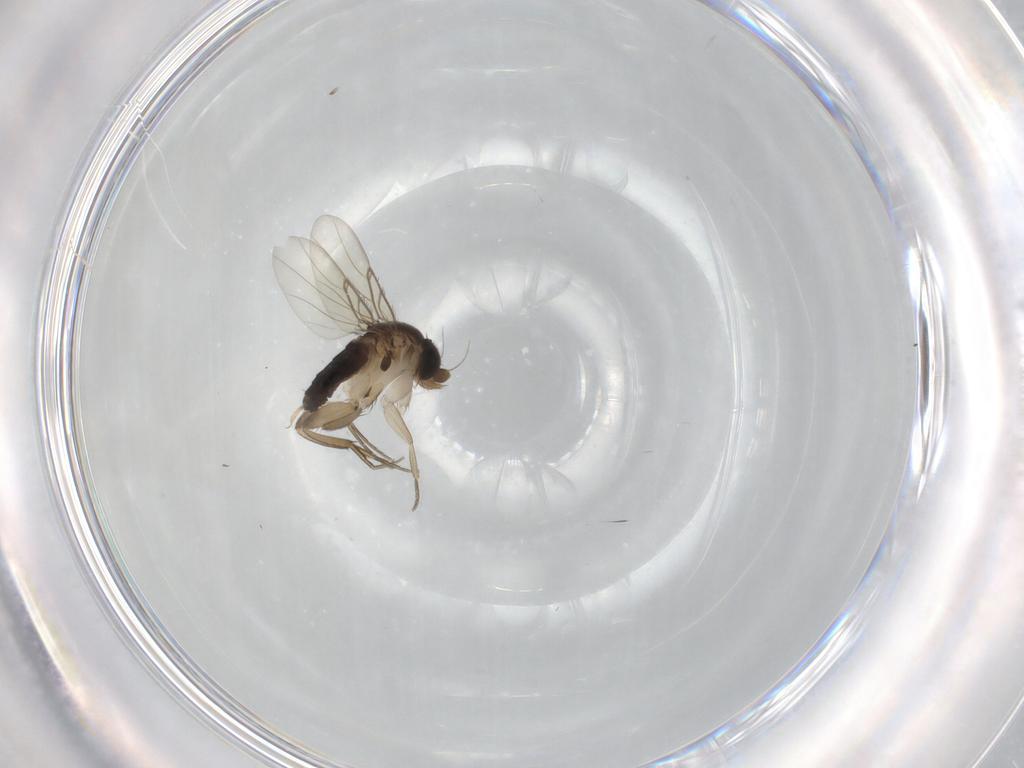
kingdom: Animalia
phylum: Arthropoda
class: Insecta
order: Diptera
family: Phoridae
